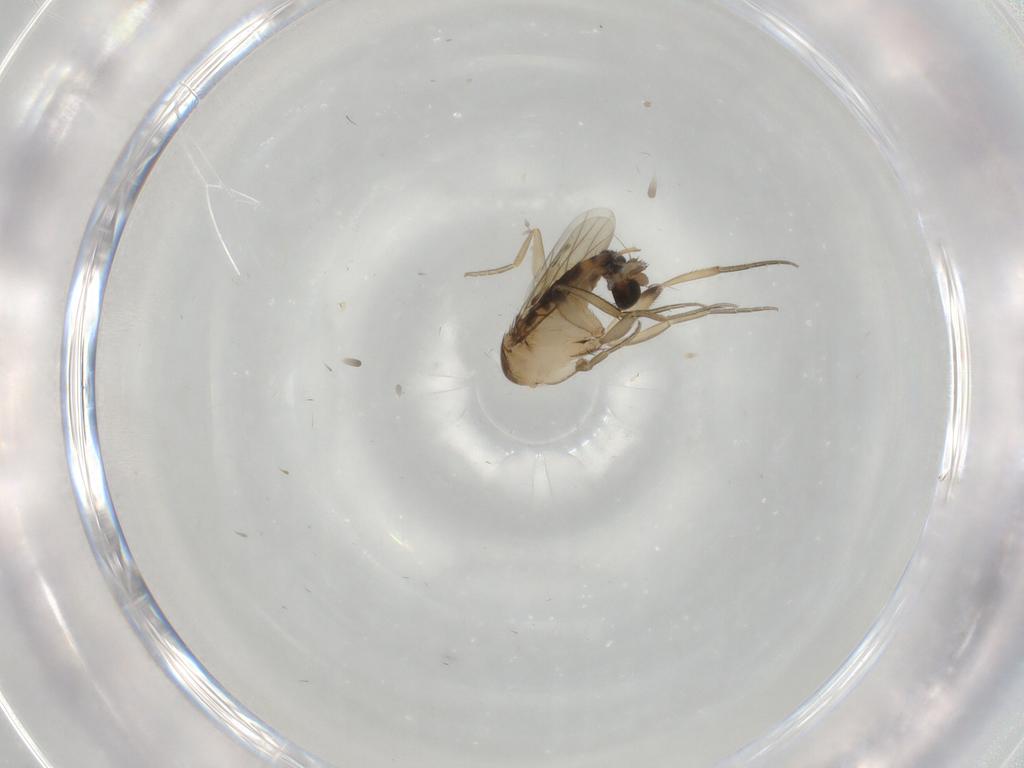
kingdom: Animalia
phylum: Arthropoda
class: Insecta
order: Diptera
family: Phoridae
